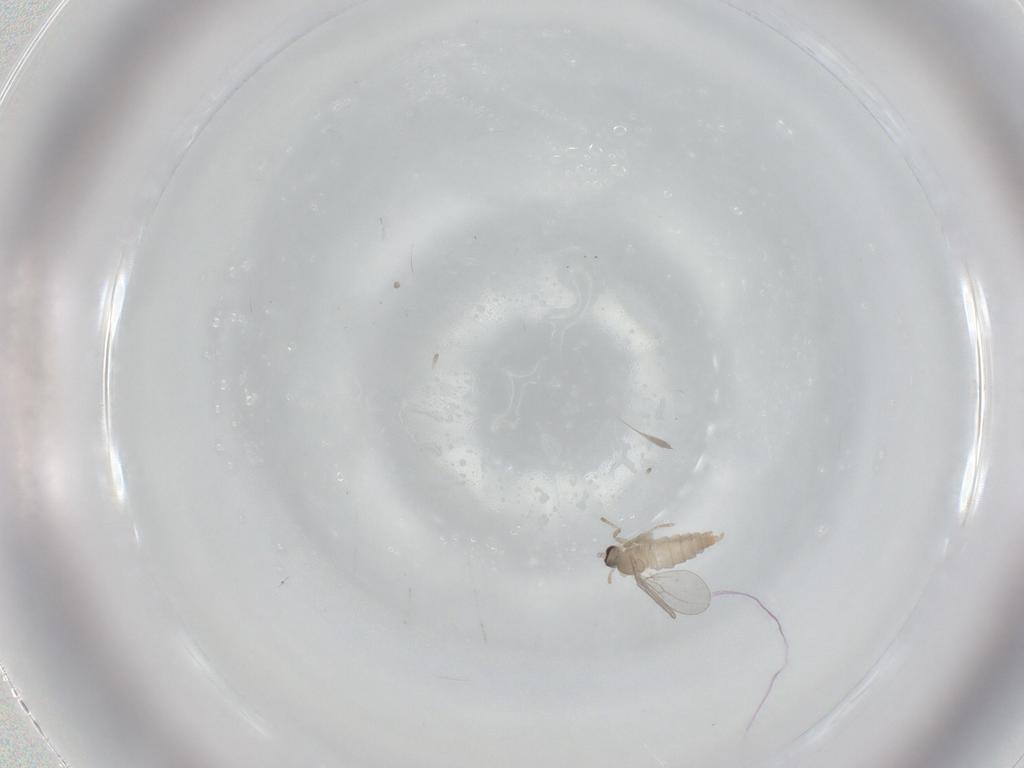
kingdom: Animalia
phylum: Arthropoda
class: Insecta
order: Diptera
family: Cecidomyiidae
